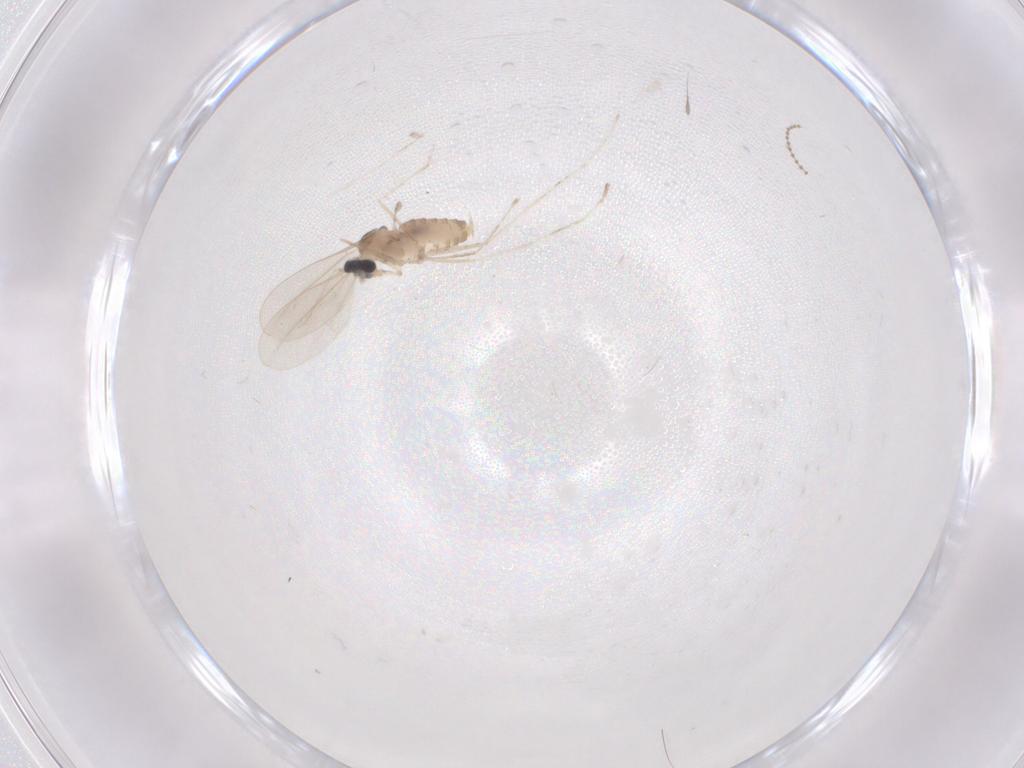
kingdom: Animalia
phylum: Arthropoda
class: Insecta
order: Diptera
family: Cecidomyiidae
